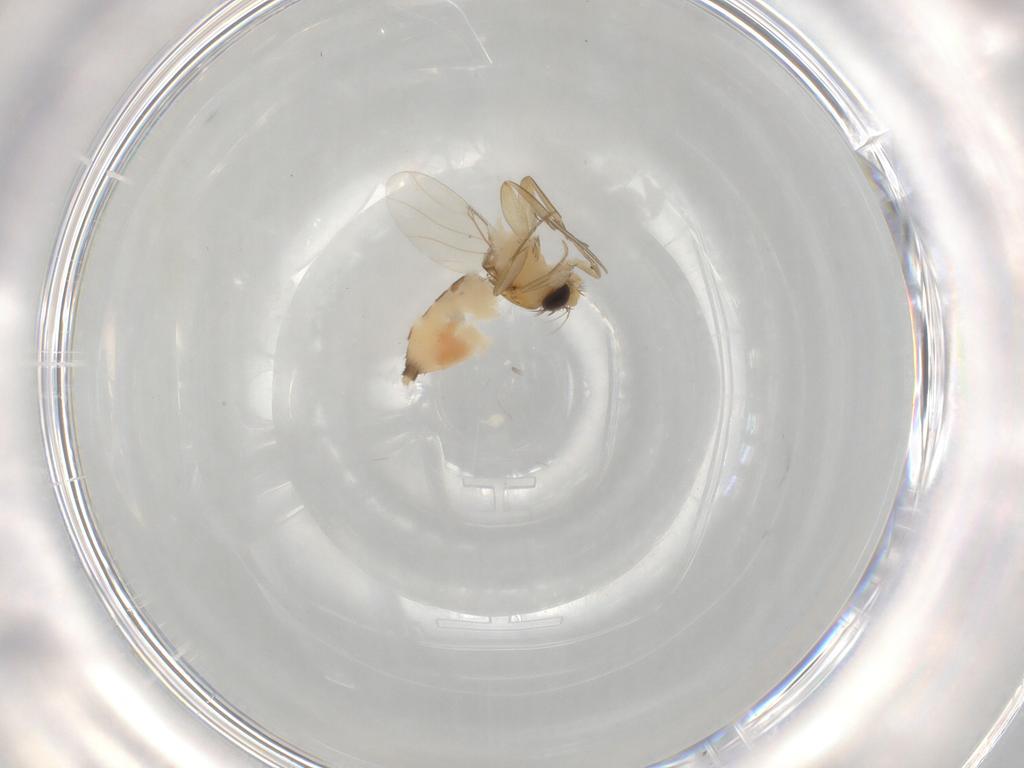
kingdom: Animalia
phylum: Arthropoda
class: Insecta
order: Diptera
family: Phoridae
